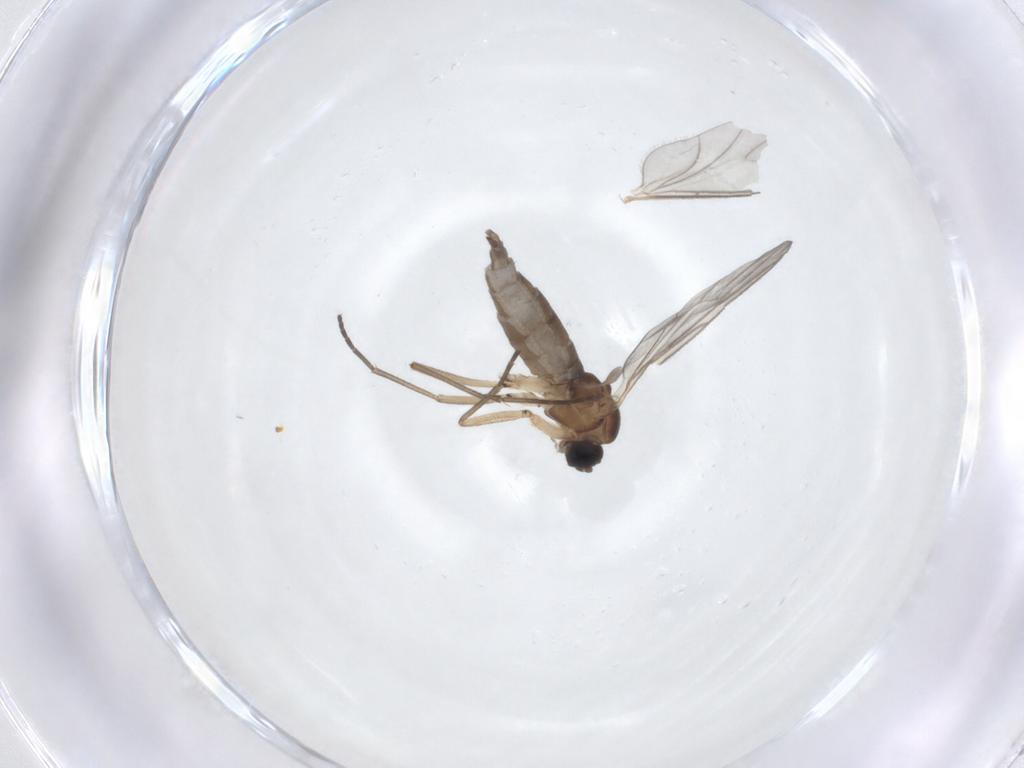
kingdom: Animalia
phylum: Arthropoda
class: Insecta
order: Diptera
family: Sciaridae
